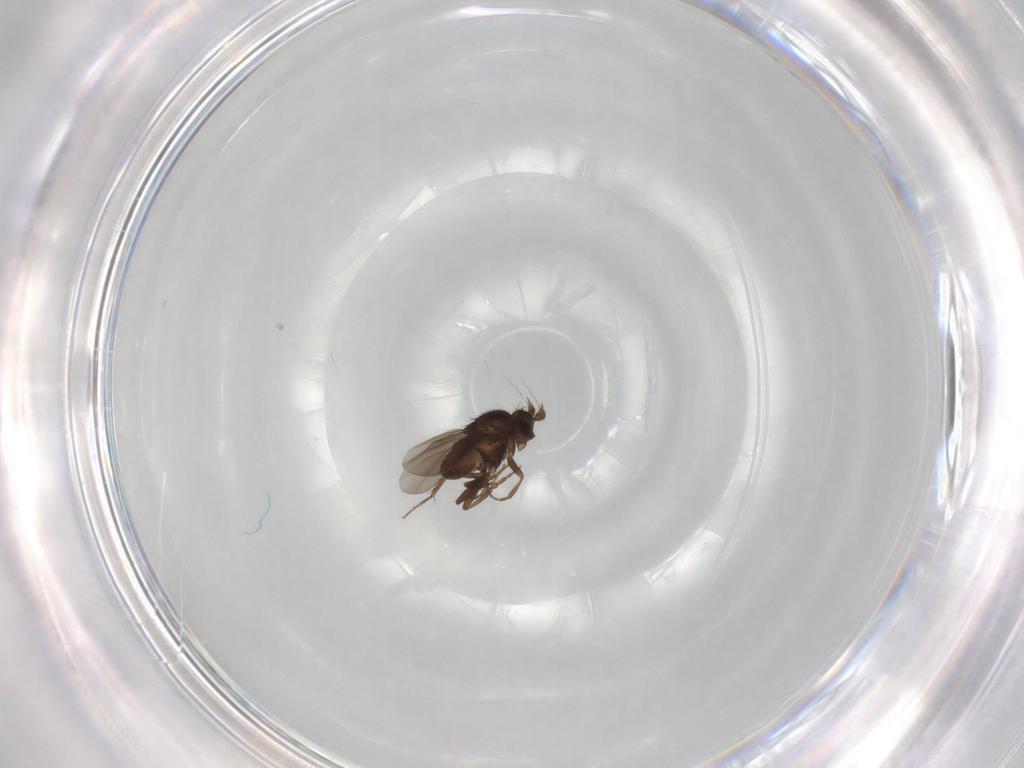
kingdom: Animalia
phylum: Arthropoda
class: Insecta
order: Diptera
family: Sphaeroceridae
